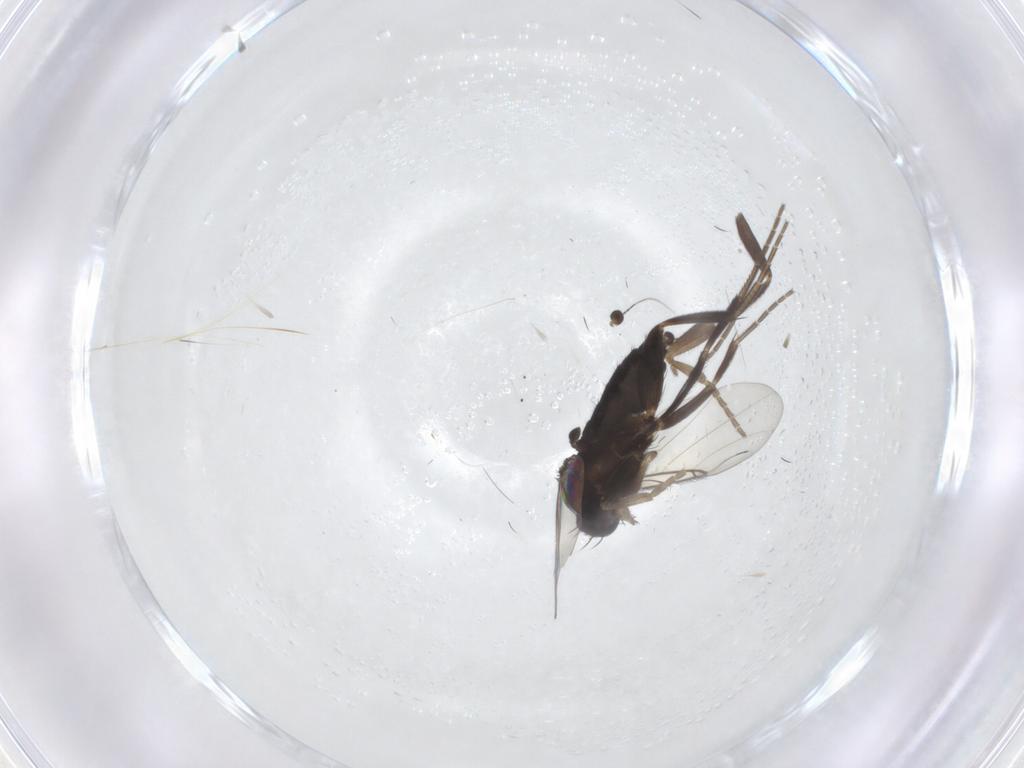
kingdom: Animalia
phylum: Arthropoda
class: Insecta
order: Diptera
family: Phoridae
